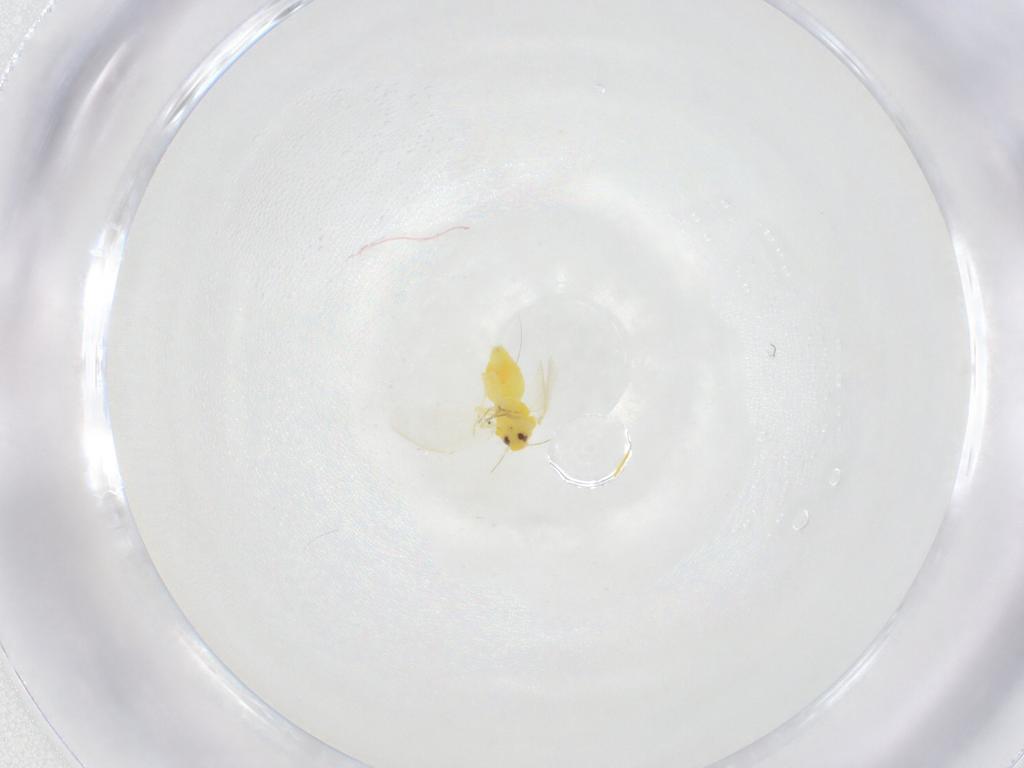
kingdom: Animalia
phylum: Arthropoda
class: Insecta
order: Hemiptera
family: Aleyrodidae
